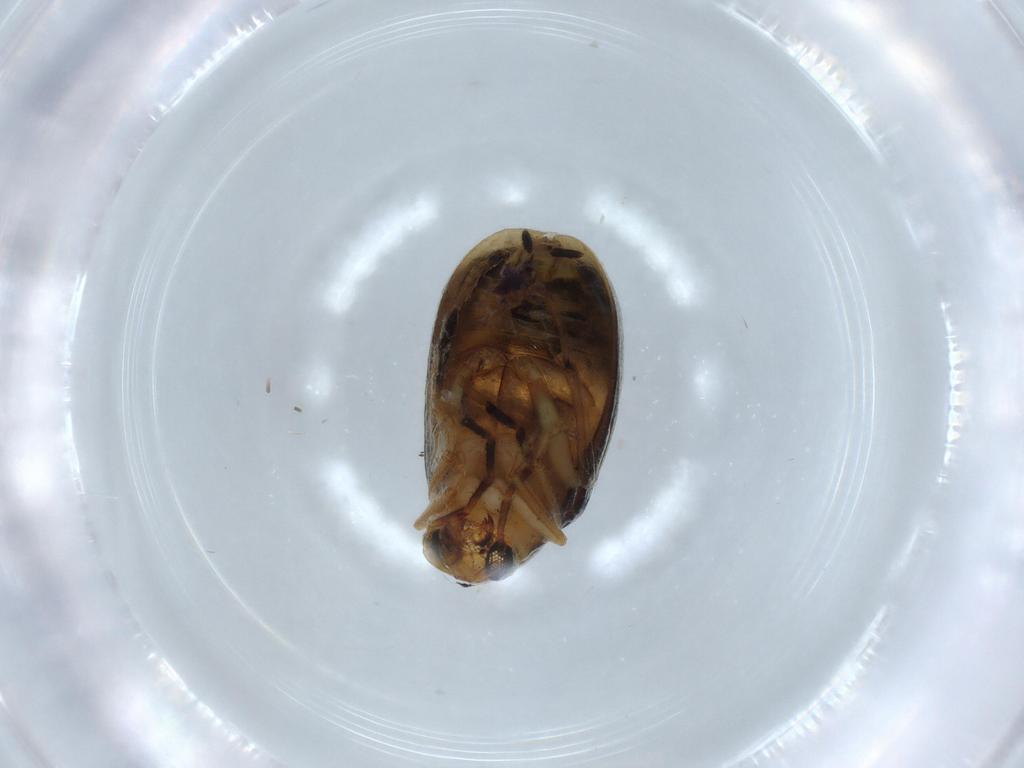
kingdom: Animalia
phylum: Arthropoda
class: Insecta
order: Coleoptera
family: Chrysomelidae
